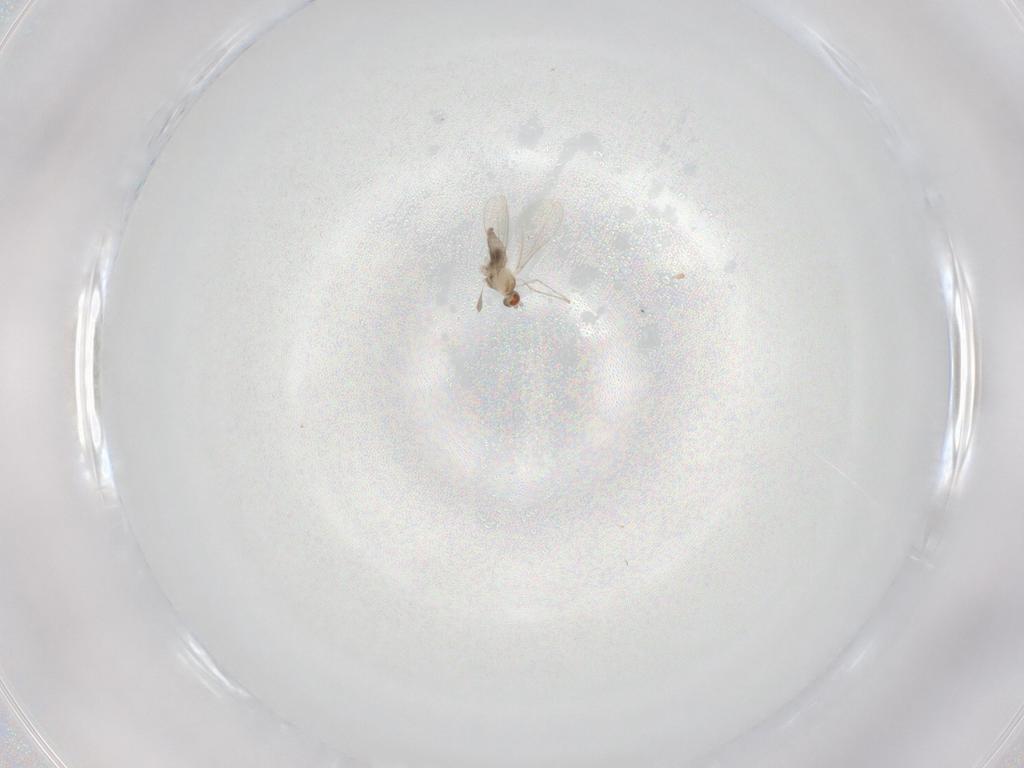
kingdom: Animalia
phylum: Arthropoda
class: Insecta
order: Diptera
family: Cecidomyiidae
